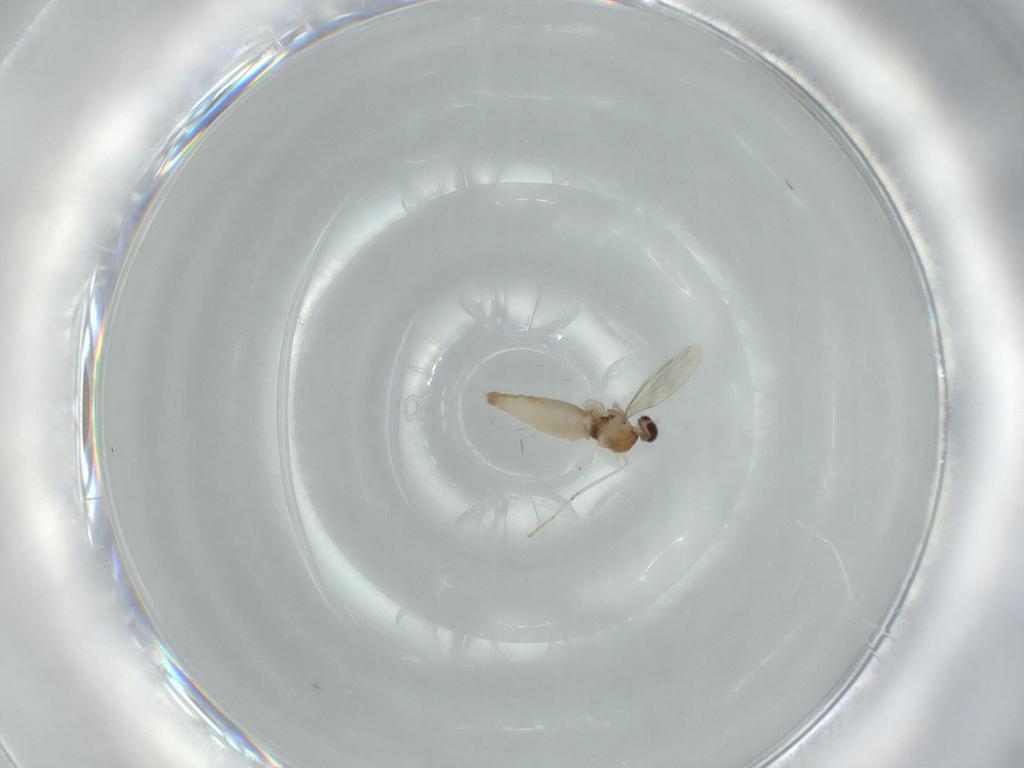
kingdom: Animalia
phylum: Arthropoda
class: Insecta
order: Diptera
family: Cecidomyiidae
